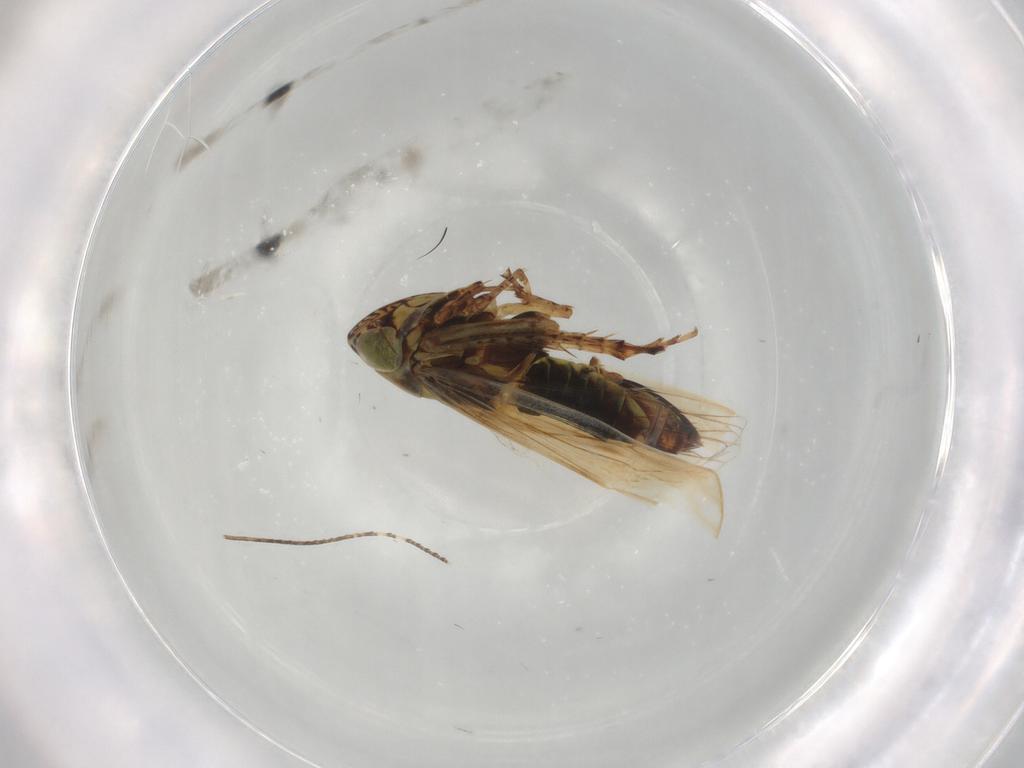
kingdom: Animalia
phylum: Arthropoda
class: Insecta
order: Hemiptera
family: Cicadellidae
